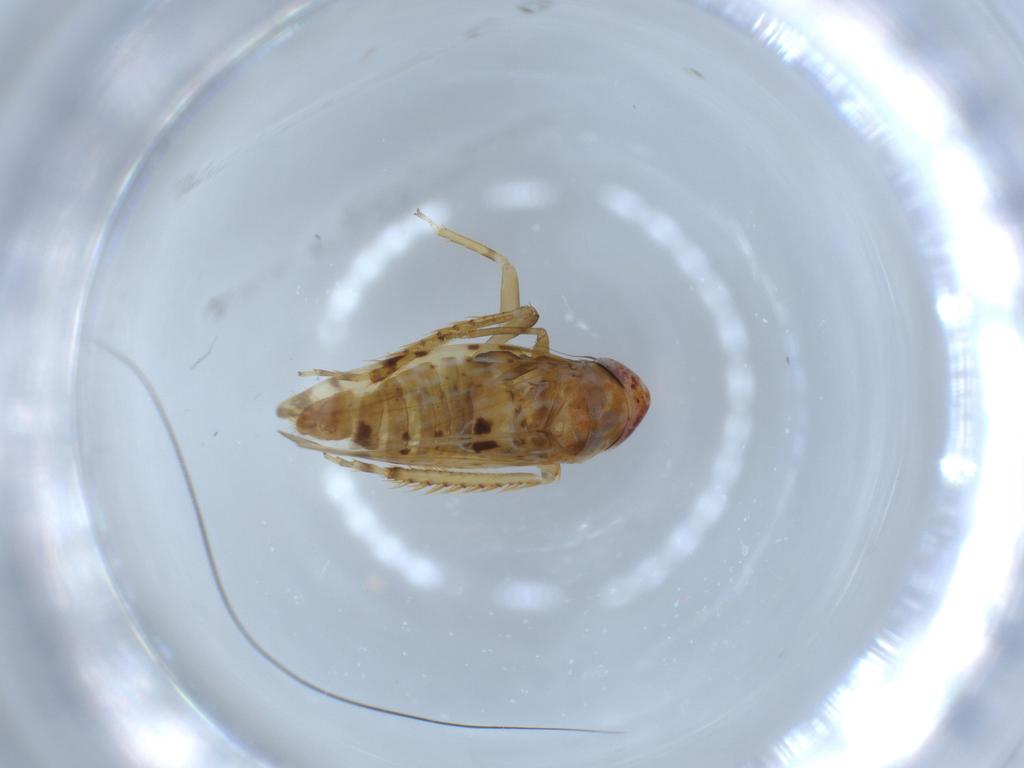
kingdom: Animalia
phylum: Arthropoda
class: Insecta
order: Hemiptera
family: Cicadellidae
